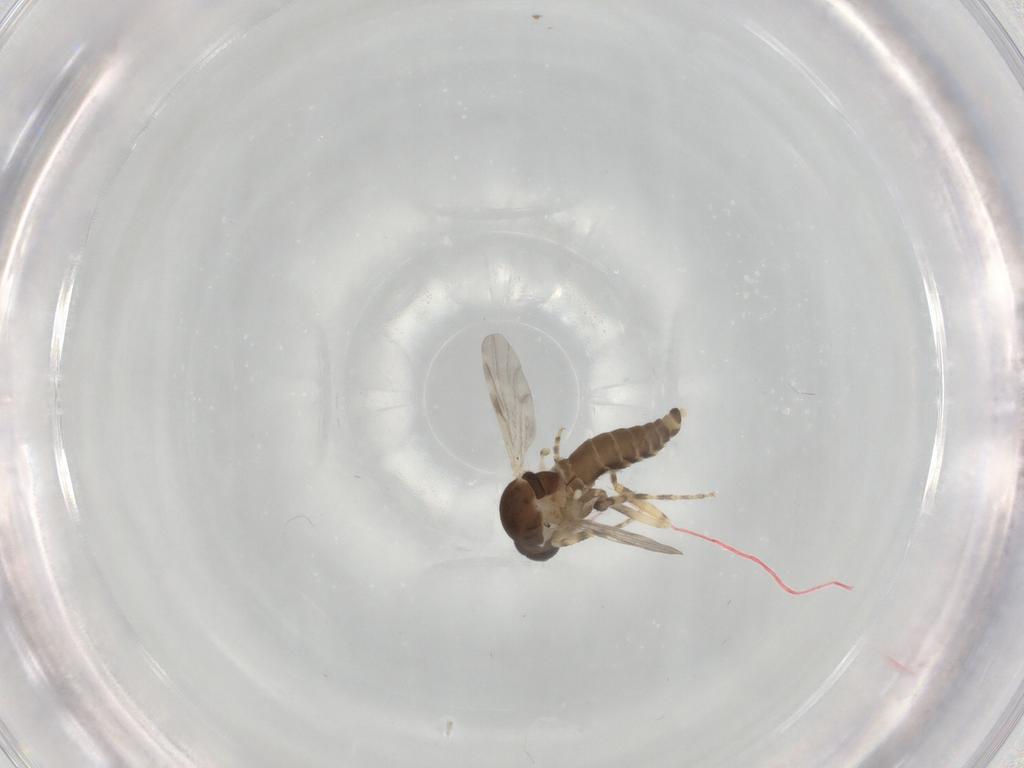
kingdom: Animalia
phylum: Arthropoda
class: Insecta
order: Diptera
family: Ceratopogonidae
